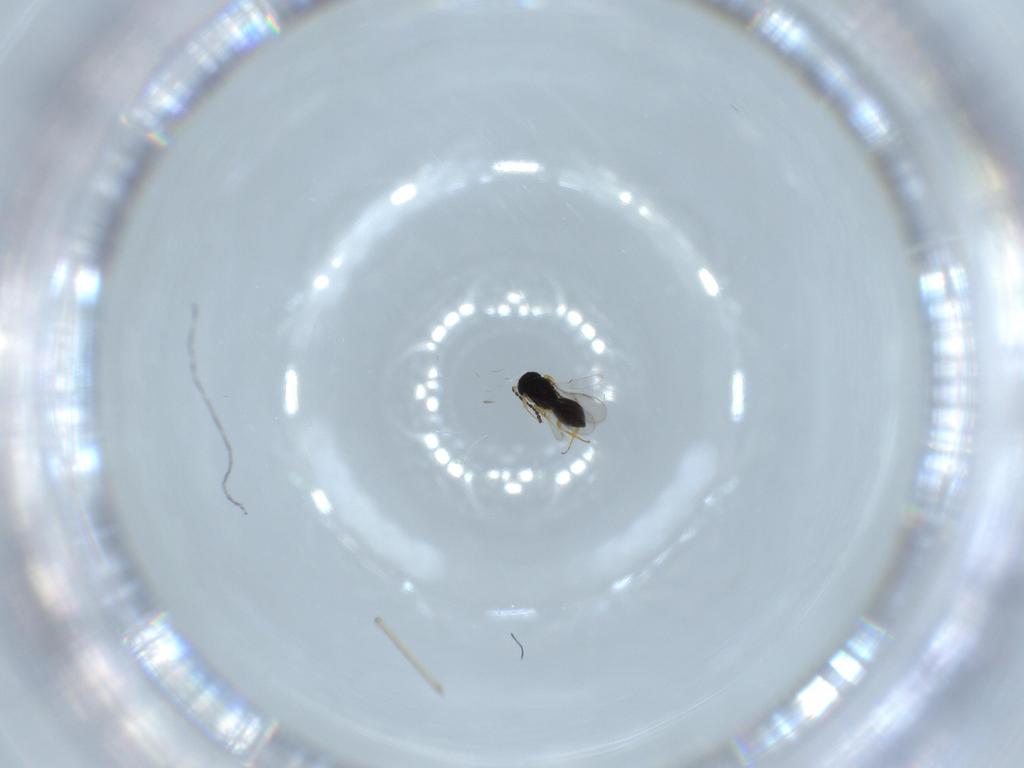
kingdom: Animalia
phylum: Arthropoda
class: Insecta
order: Hymenoptera
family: Scelionidae
